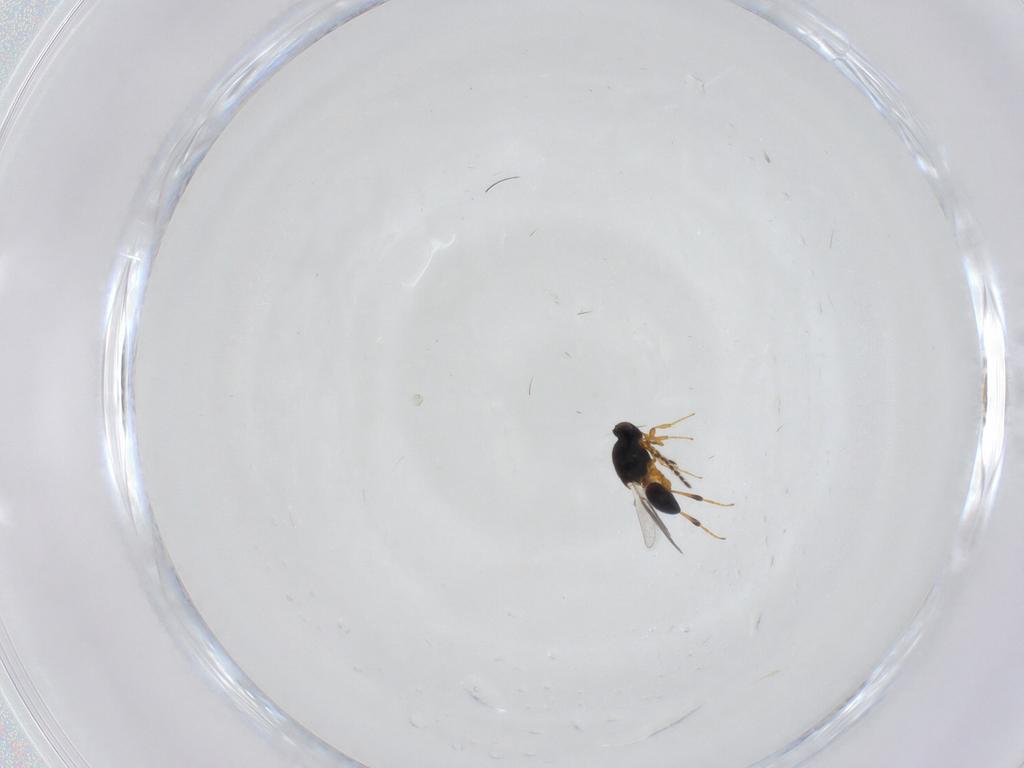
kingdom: Animalia
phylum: Arthropoda
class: Insecta
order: Hymenoptera
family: Platygastridae
